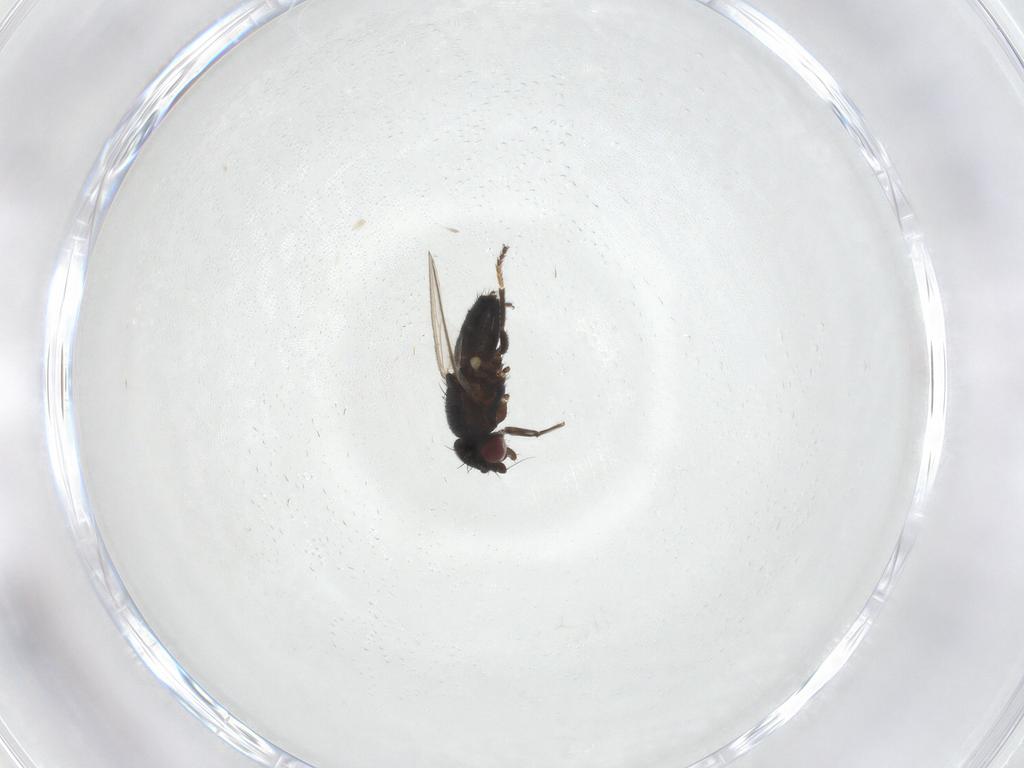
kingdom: Animalia
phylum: Arthropoda
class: Insecta
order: Diptera
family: Milichiidae
